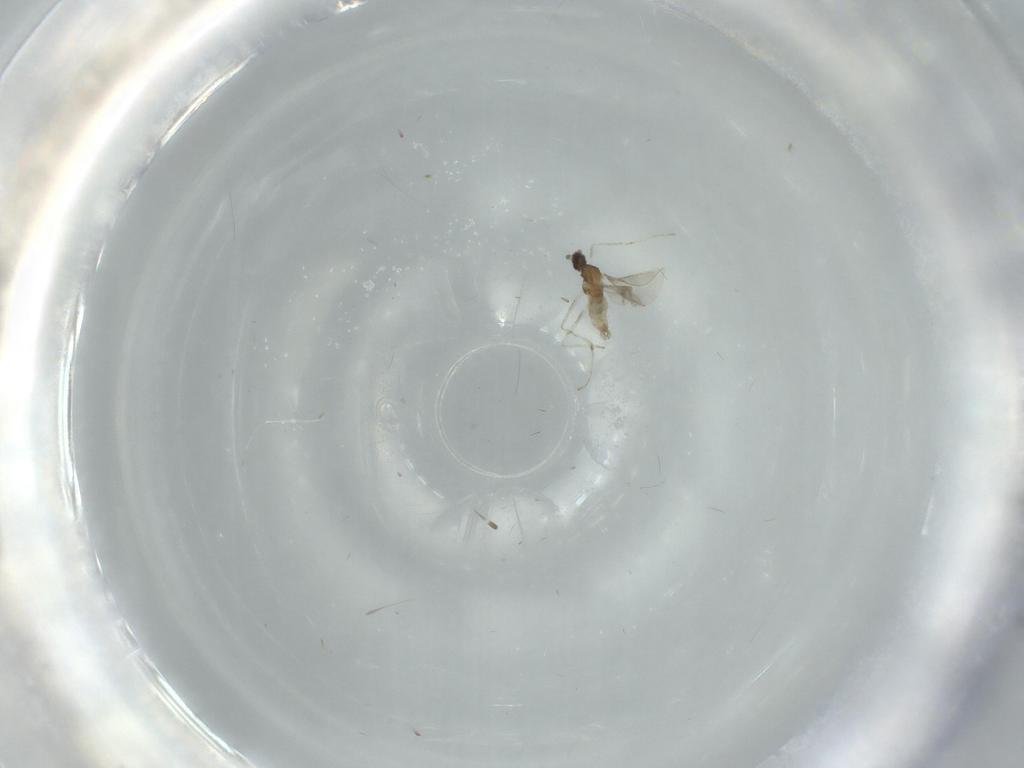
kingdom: Animalia
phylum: Arthropoda
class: Insecta
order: Diptera
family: Cecidomyiidae
